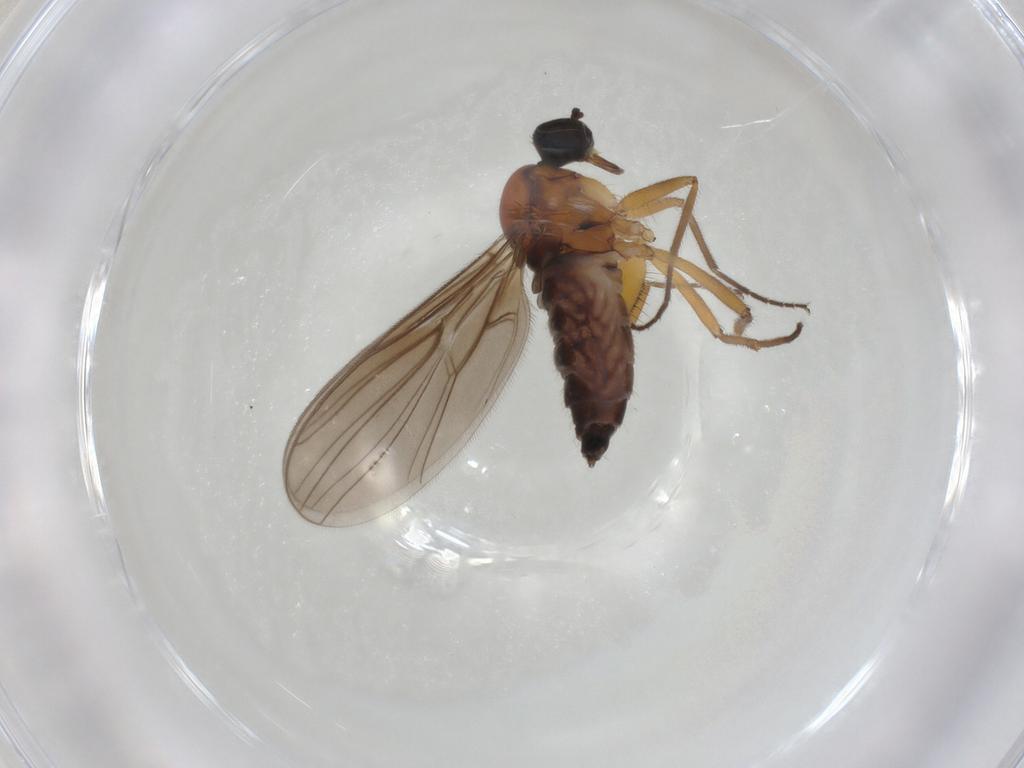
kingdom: Animalia
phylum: Arthropoda
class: Insecta
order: Diptera
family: Hybotidae
